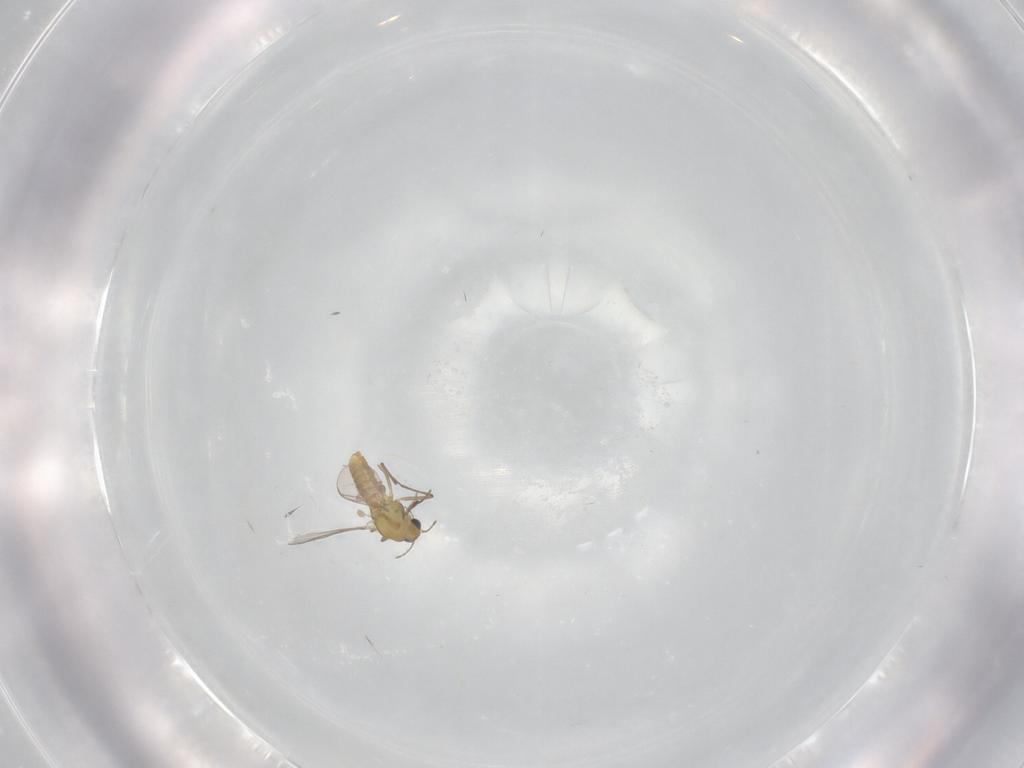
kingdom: Animalia
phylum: Arthropoda
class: Insecta
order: Diptera
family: Chironomidae
